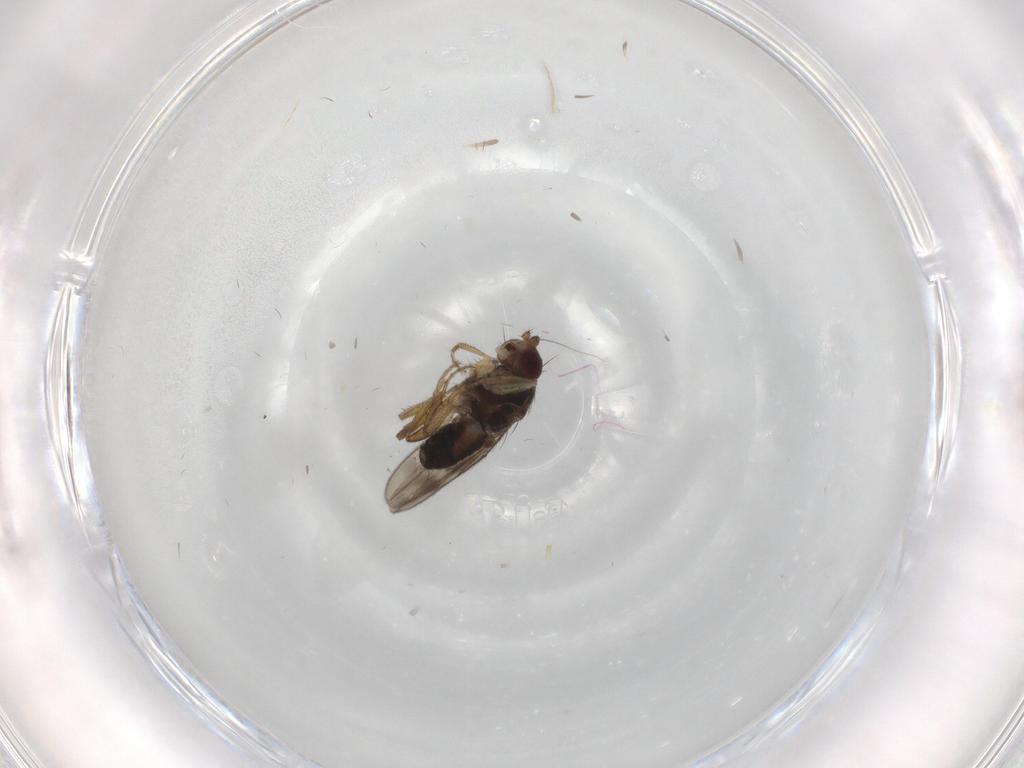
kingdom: Animalia
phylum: Arthropoda
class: Insecta
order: Diptera
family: Sphaeroceridae
